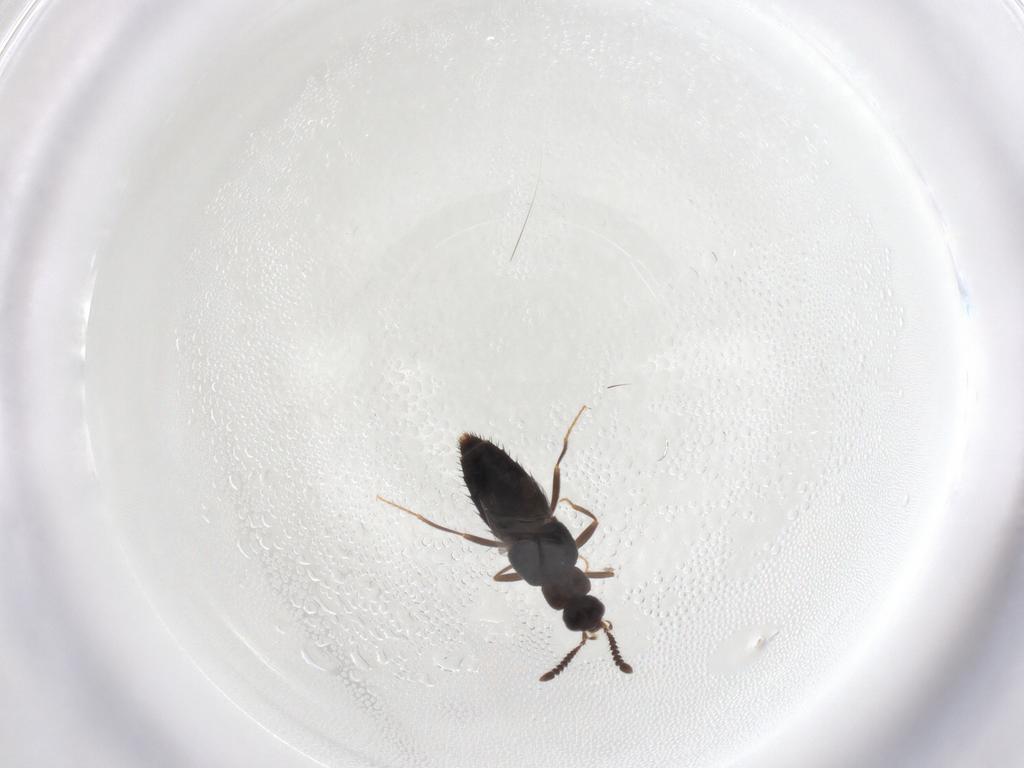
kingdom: Animalia
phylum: Arthropoda
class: Insecta
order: Coleoptera
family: Staphylinidae
